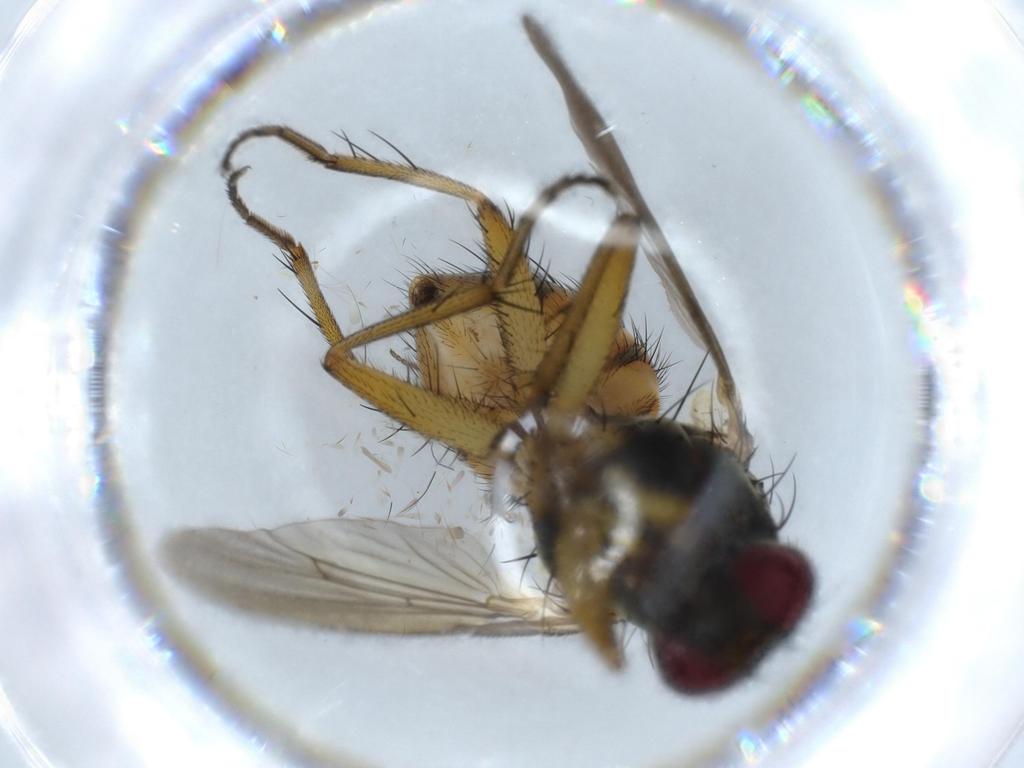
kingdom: Animalia
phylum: Arthropoda
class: Insecta
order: Diptera
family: Muscidae
